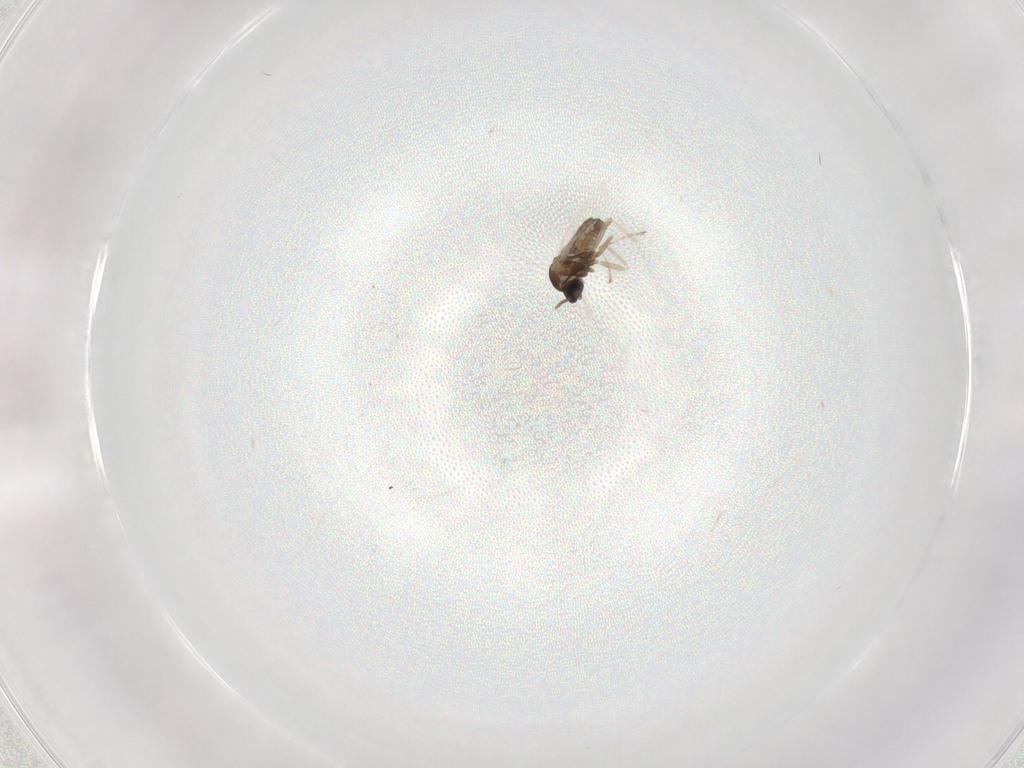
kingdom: Animalia
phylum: Arthropoda
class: Insecta
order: Diptera
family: Cecidomyiidae
